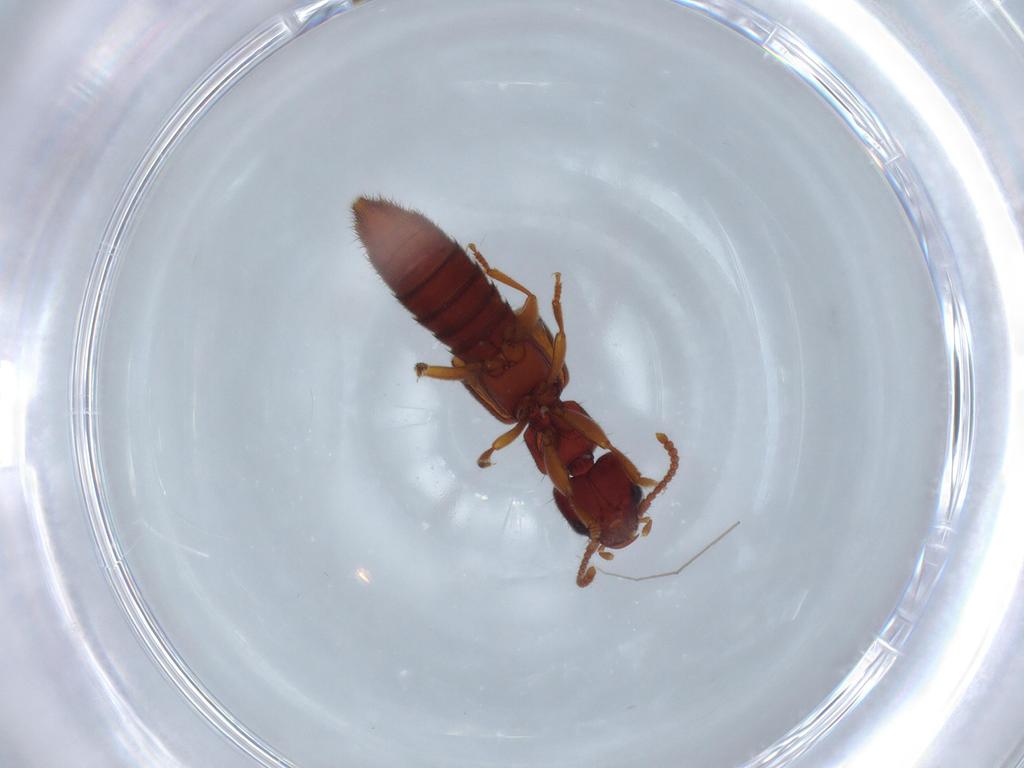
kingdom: Animalia
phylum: Arthropoda
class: Insecta
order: Coleoptera
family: Staphylinidae
